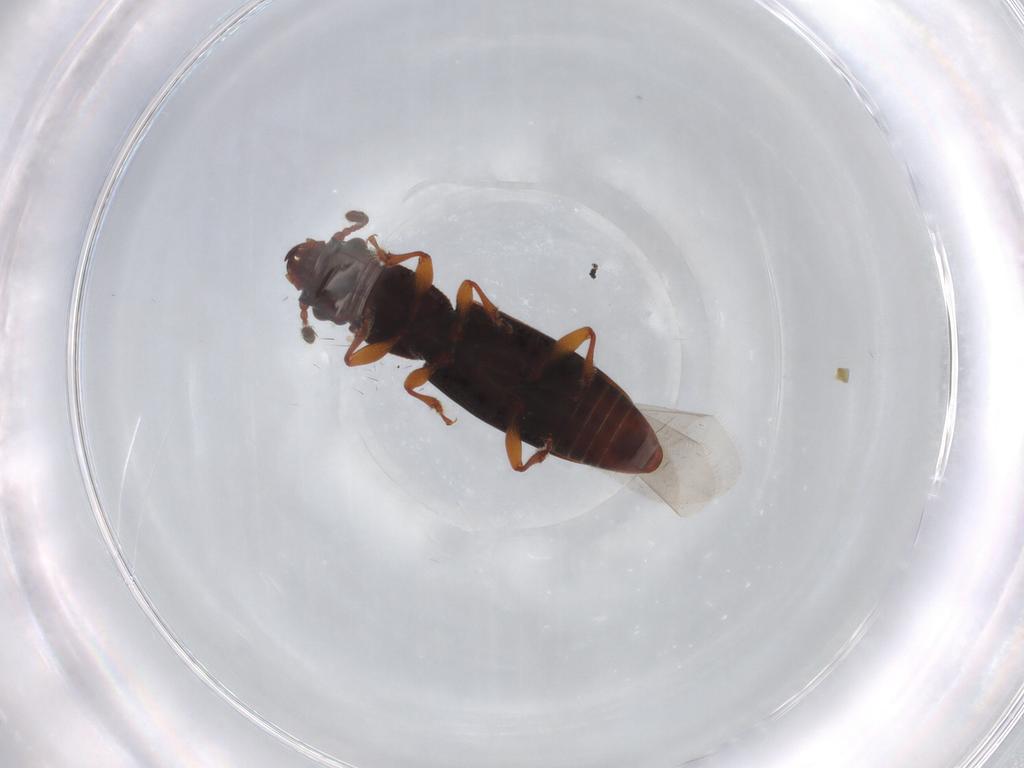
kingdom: Animalia
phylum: Arthropoda
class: Insecta
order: Coleoptera
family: Monotomidae
